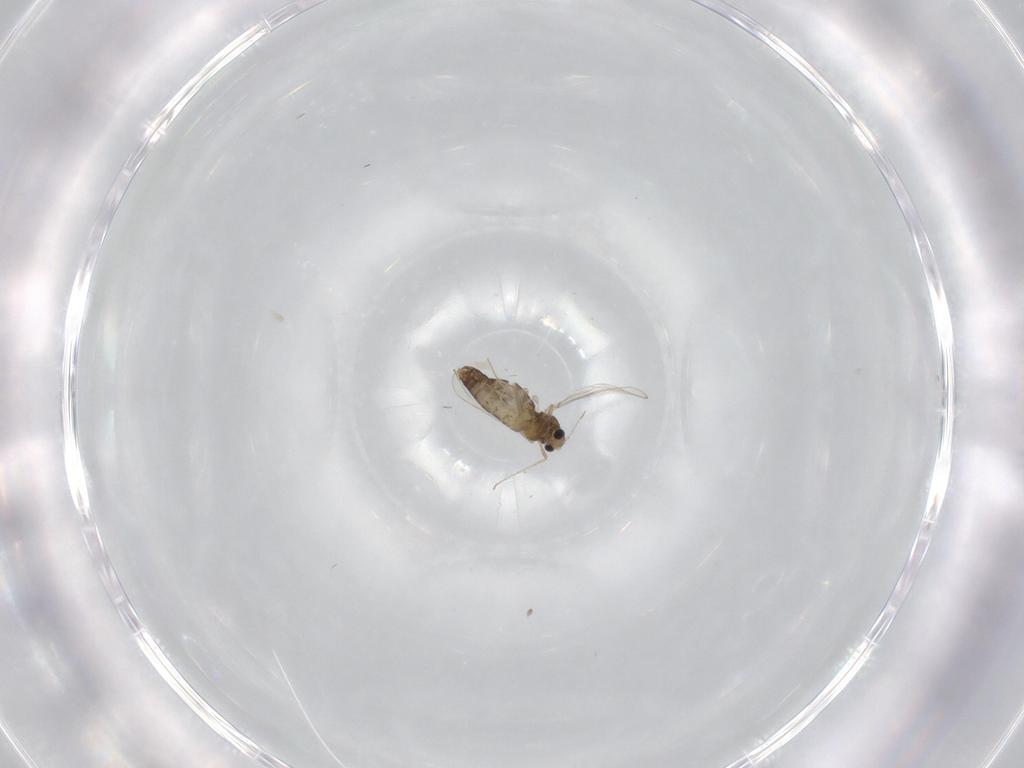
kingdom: Animalia
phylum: Arthropoda
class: Insecta
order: Diptera
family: Chironomidae
